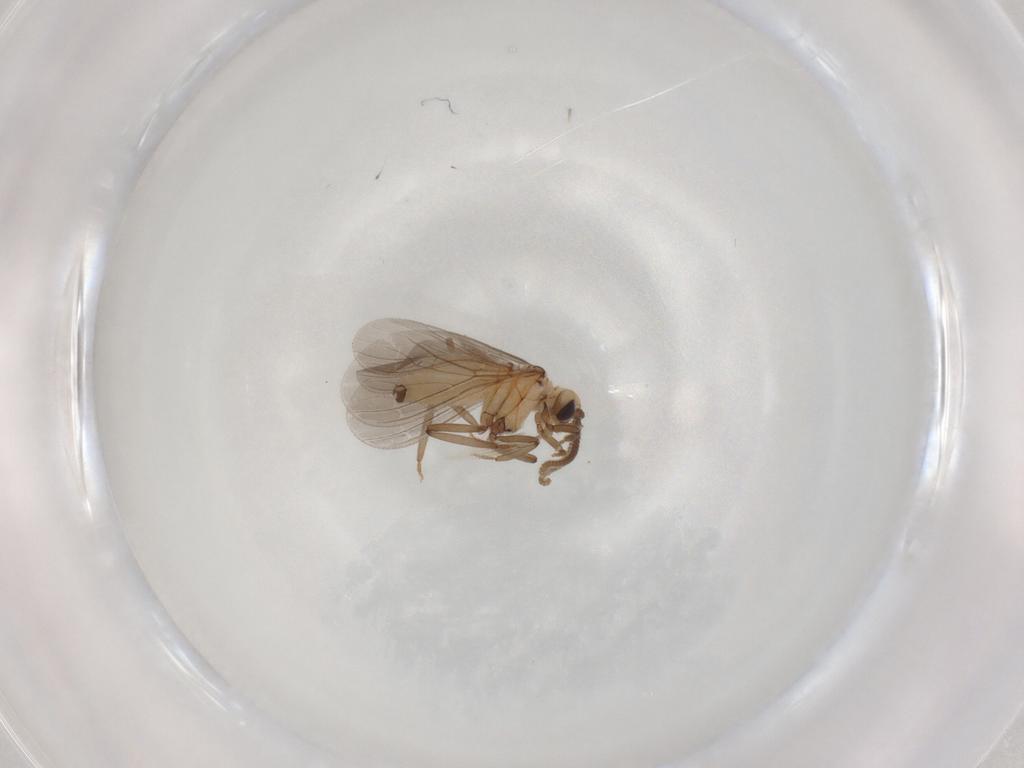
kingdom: Animalia
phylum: Arthropoda
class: Insecta
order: Neuroptera
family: Coniopterygidae
